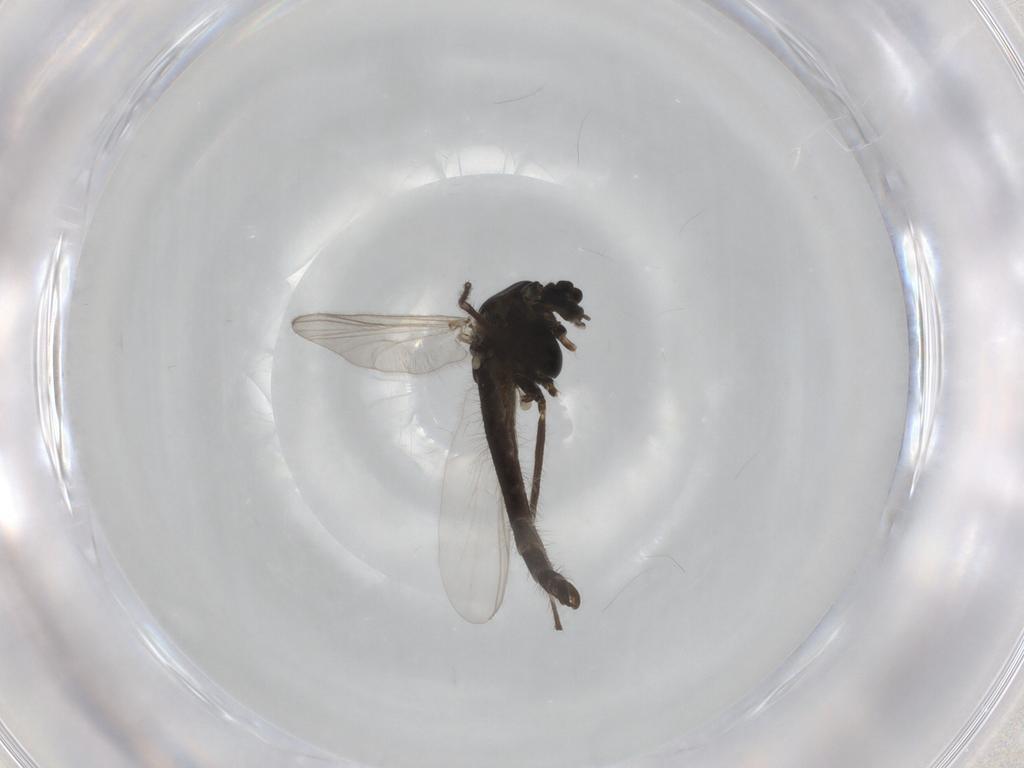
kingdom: Animalia
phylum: Arthropoda
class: Insecta
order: Diptera
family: Chironomidae
